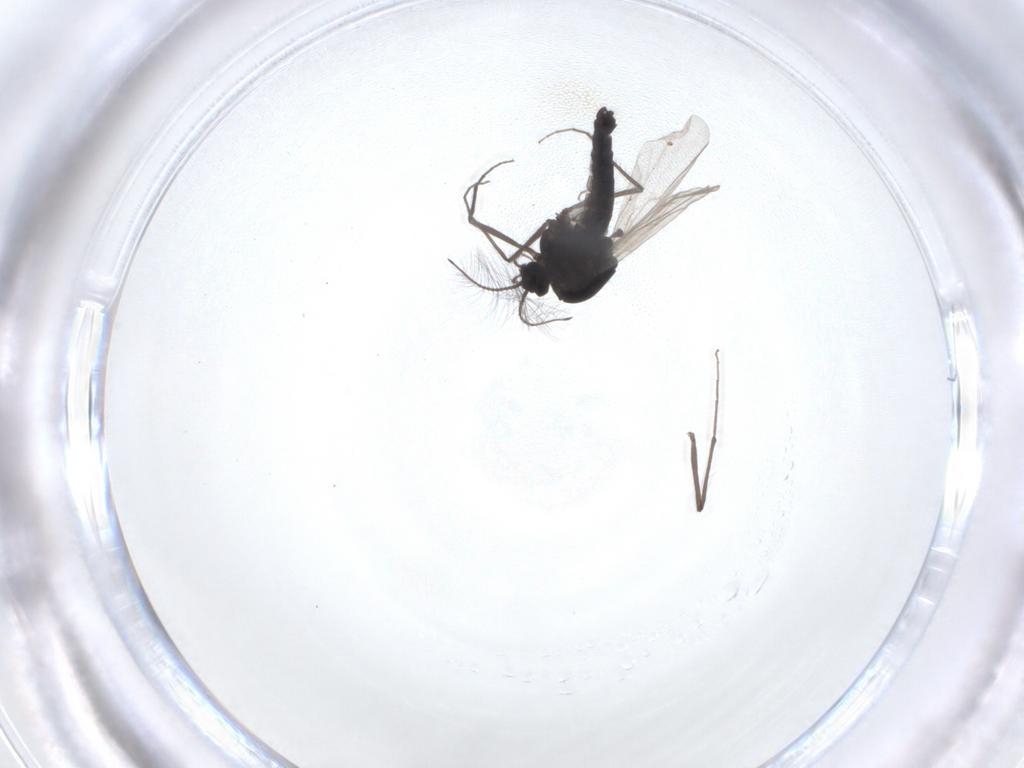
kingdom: Animalia
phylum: Arthropoda
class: Insecta
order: Diptera
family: Chironomidae
